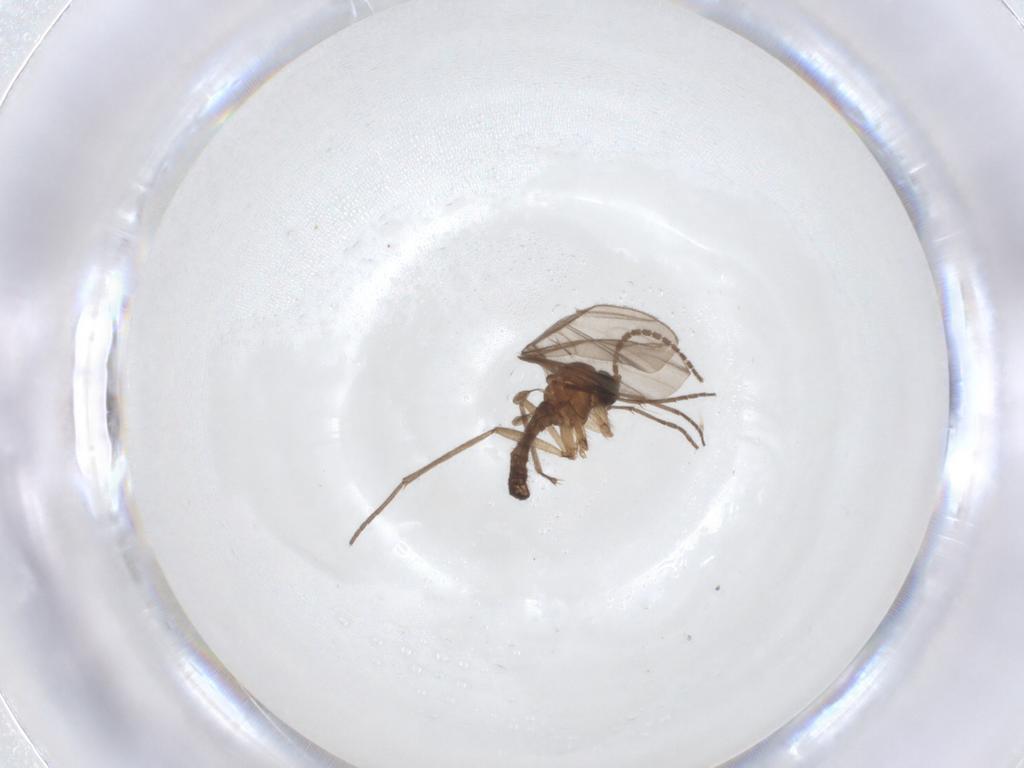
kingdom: Animalia
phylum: Arthropoda
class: Insecta
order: Diptera
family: Sciaridae
